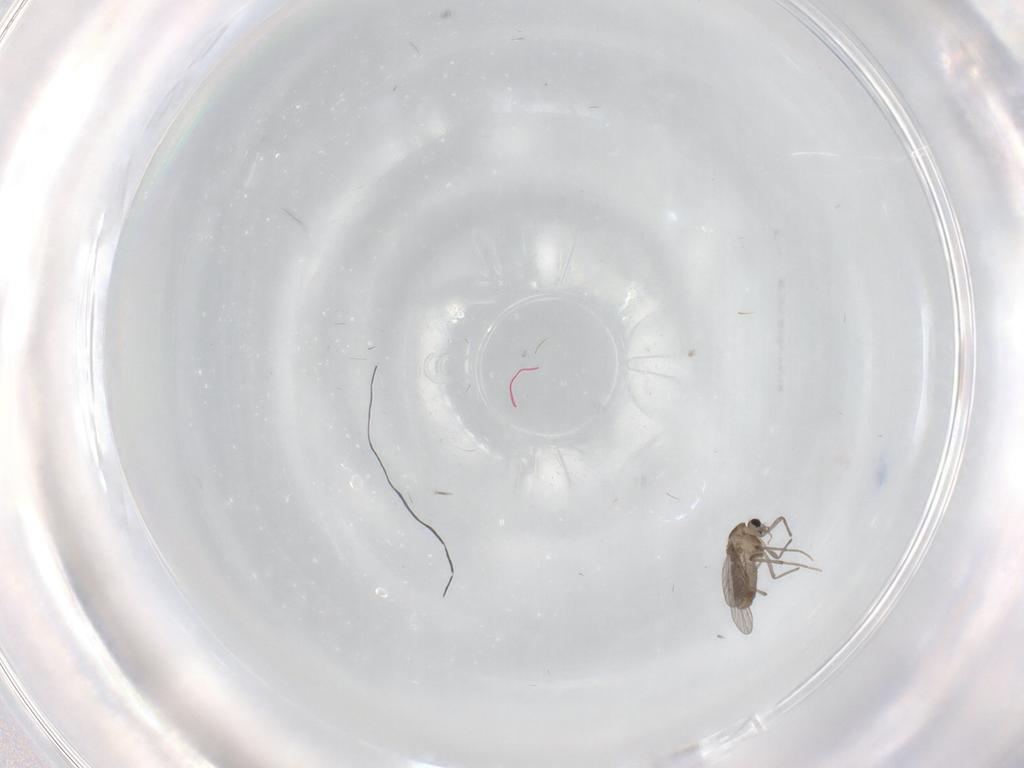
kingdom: Animalia
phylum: Arthropoda
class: Insecta
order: Diptera
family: Chironomidae
